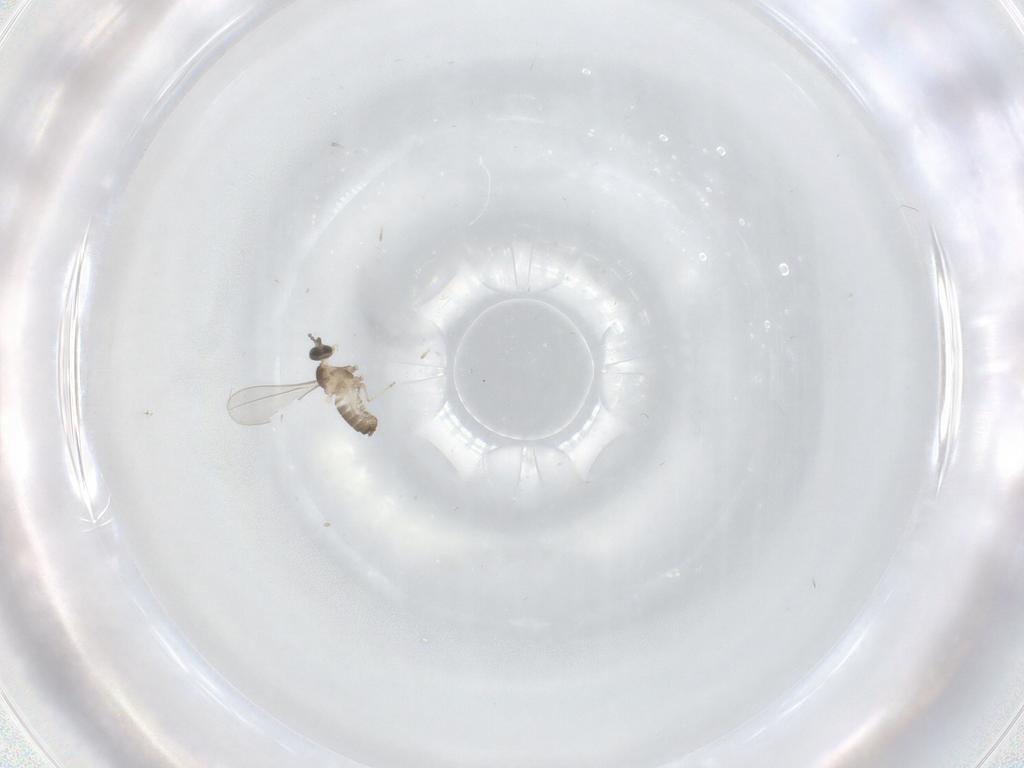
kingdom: Animalia
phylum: Arthropoda
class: Insecta
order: Diptera
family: Cecidomyiidae
